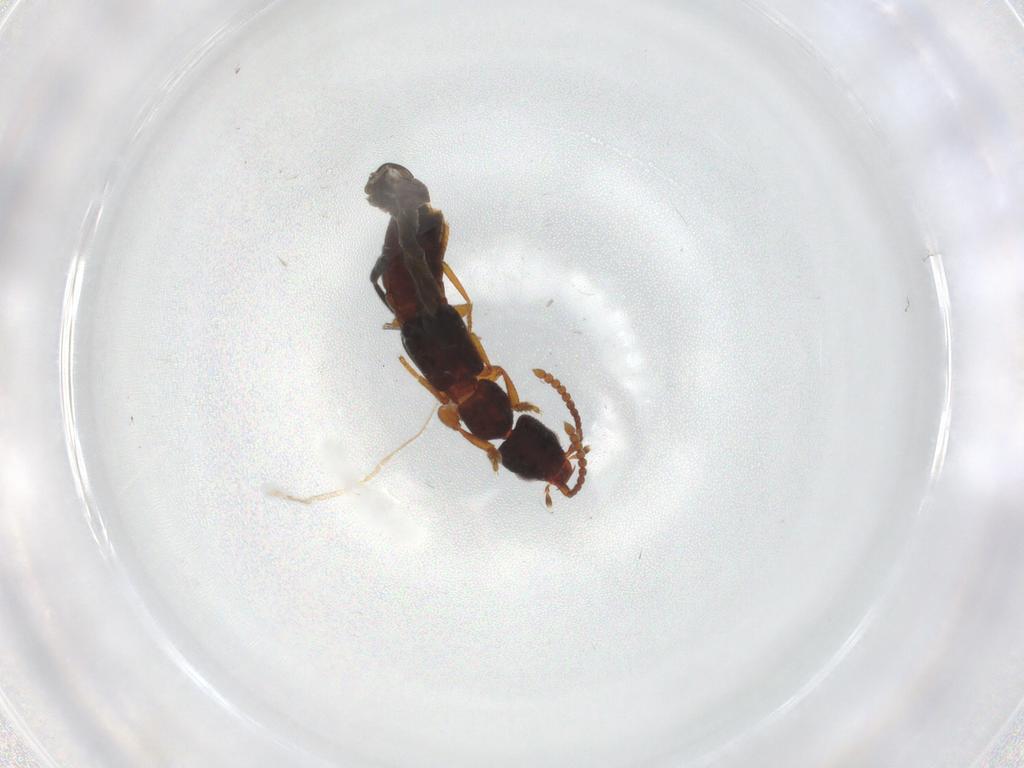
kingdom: Animalia
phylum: Arthropoda
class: Insecta
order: Coleoptera
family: Staphylinidae
